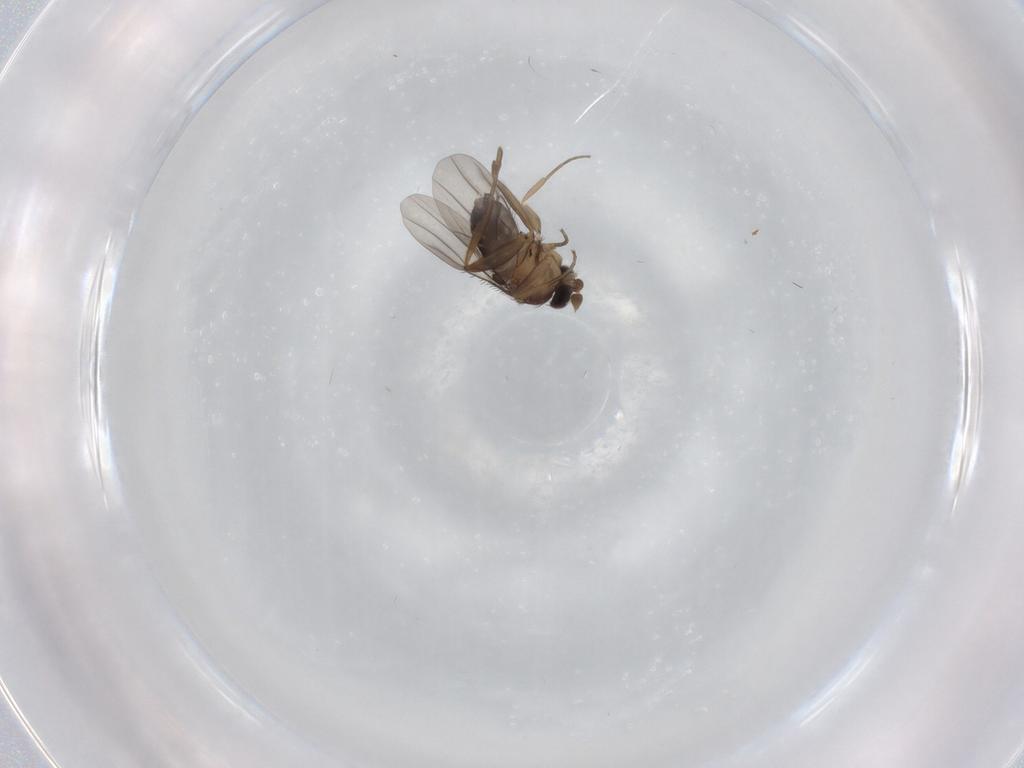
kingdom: Animalia
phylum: Arthropoda
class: Insecta
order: Diptera
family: Phoridae
